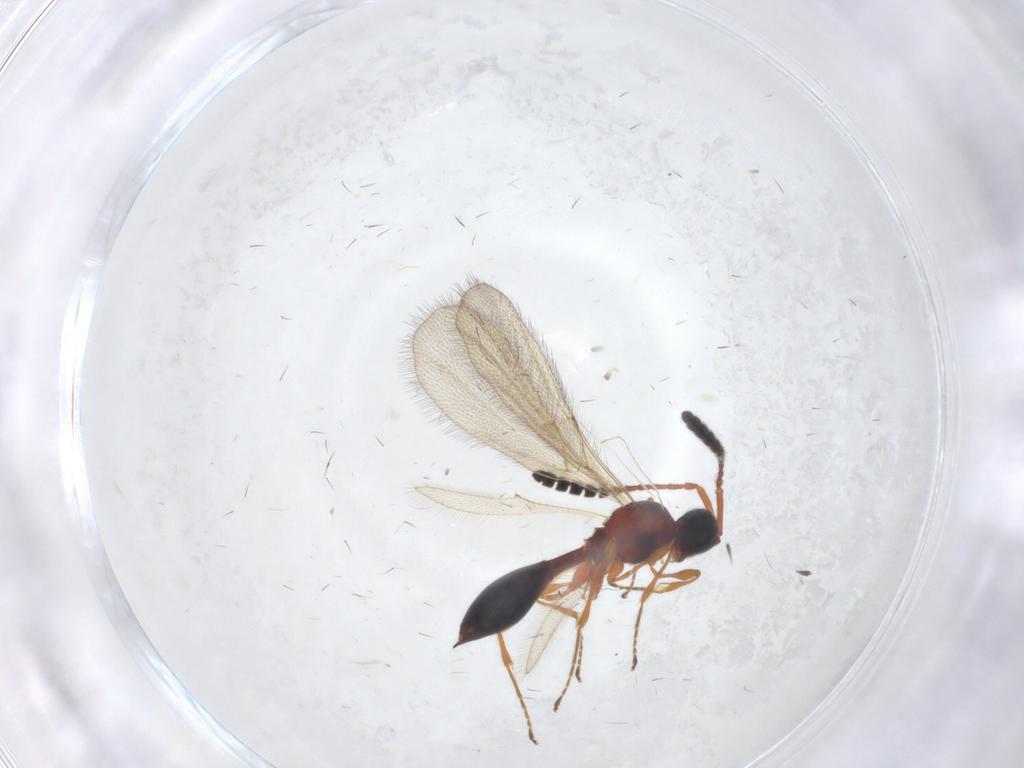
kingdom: Animalia
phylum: Arthropoda
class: Insecta
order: Hymenoptera
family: Diapriidae
